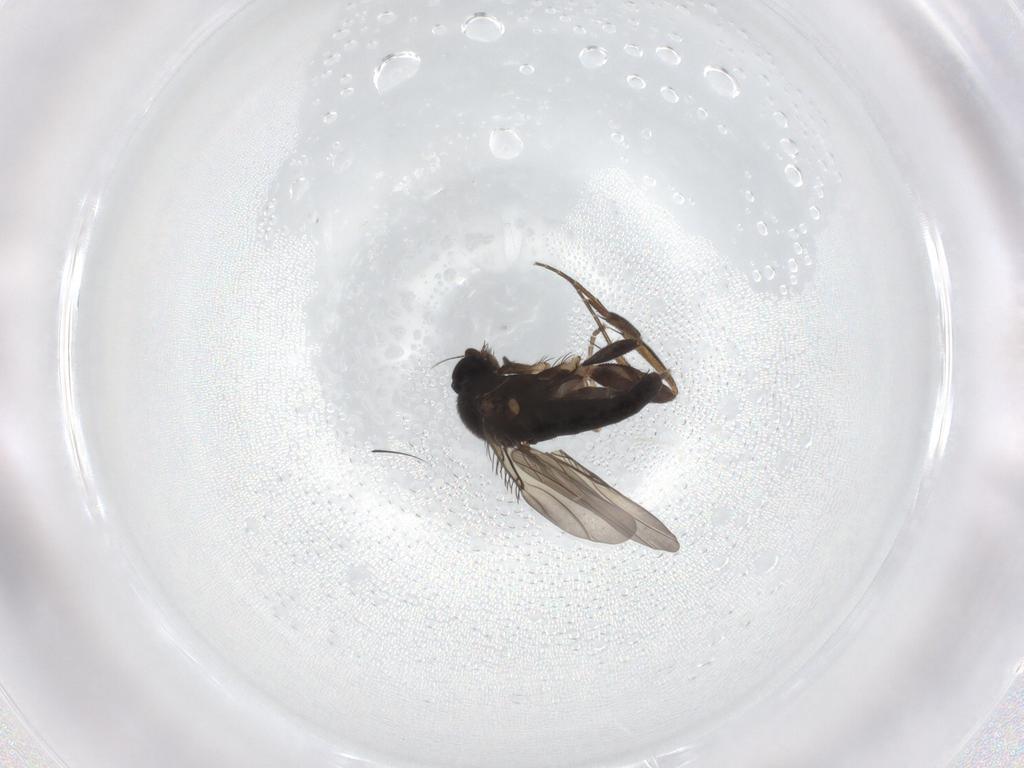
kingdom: Animalia
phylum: Arthropoda
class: Insecta
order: Diptera
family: Phoridae
